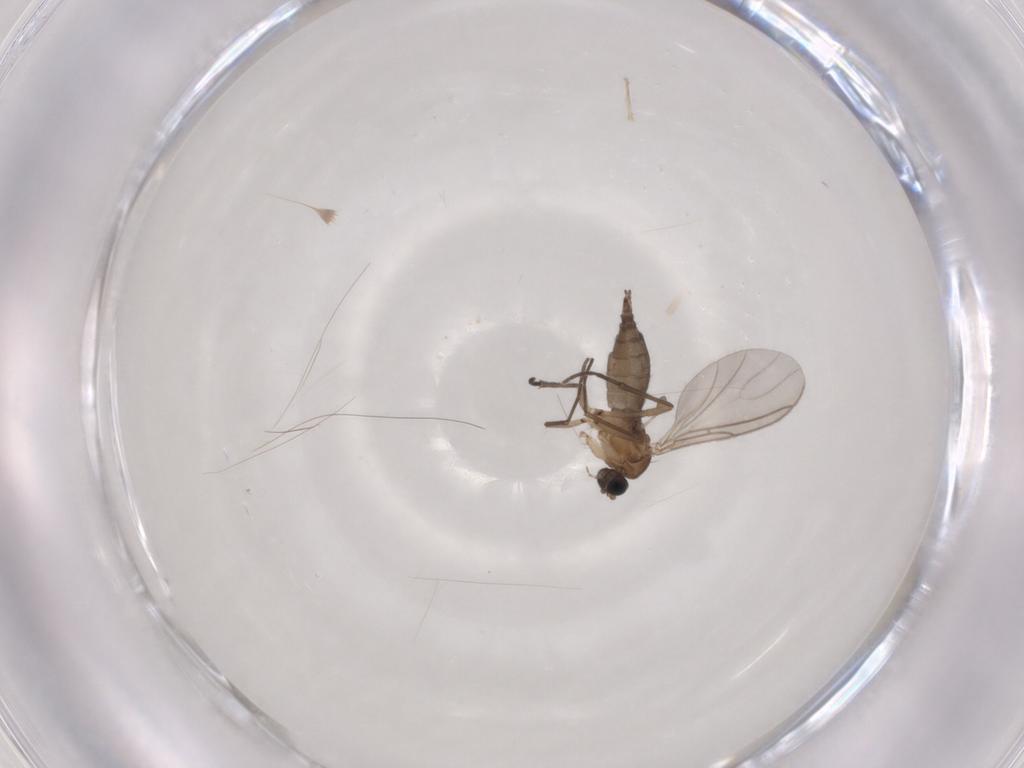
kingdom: Animalia
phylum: Arthropoda
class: Insecta
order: Diptera
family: Sciaridae
